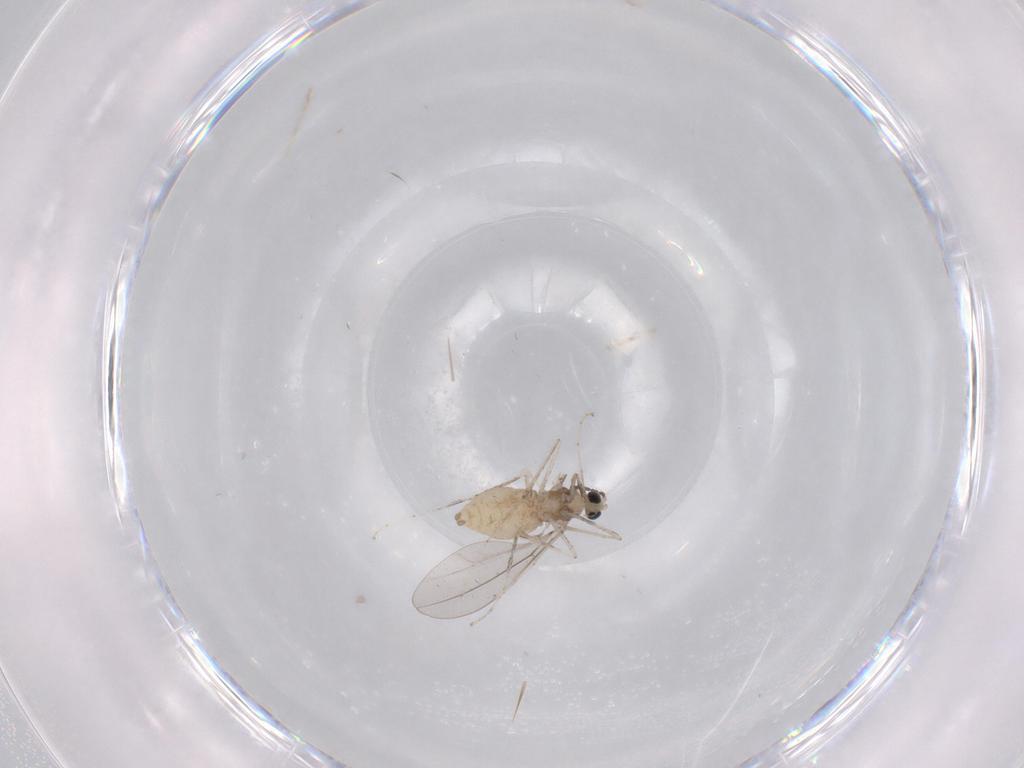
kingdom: Animalia
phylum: Arthropoda
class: Insecta
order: Diptera
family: Cecidomyiidae
